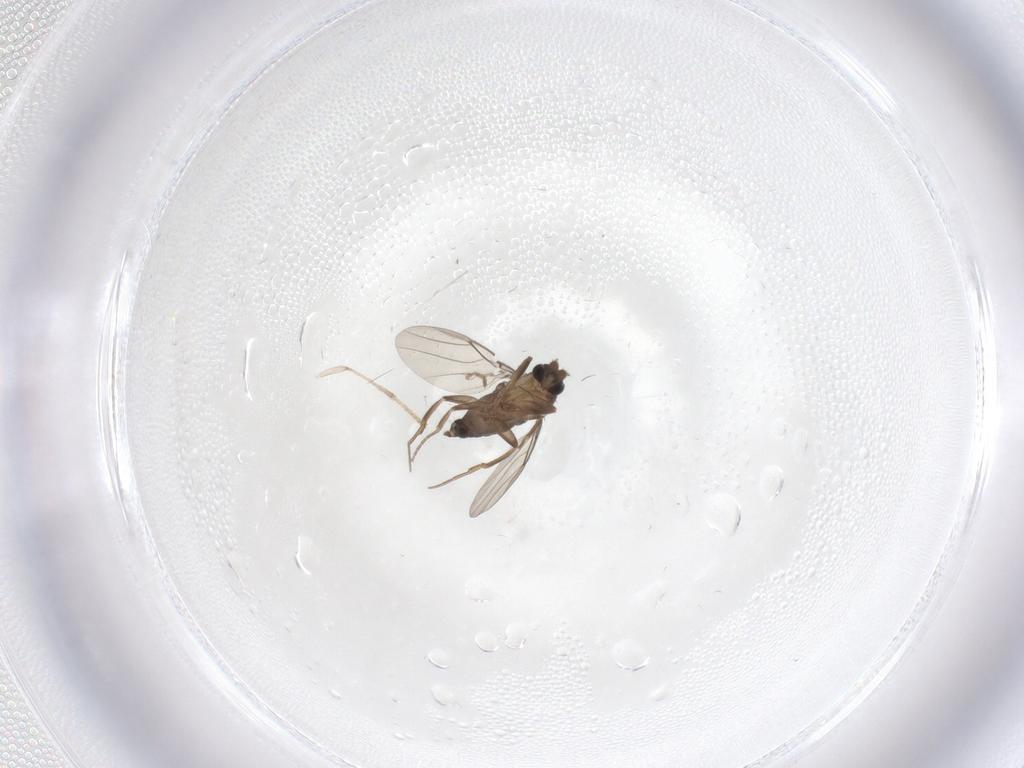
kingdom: Animalia
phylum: Arthropoda
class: Insecta
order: Diptera
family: Phoridae
